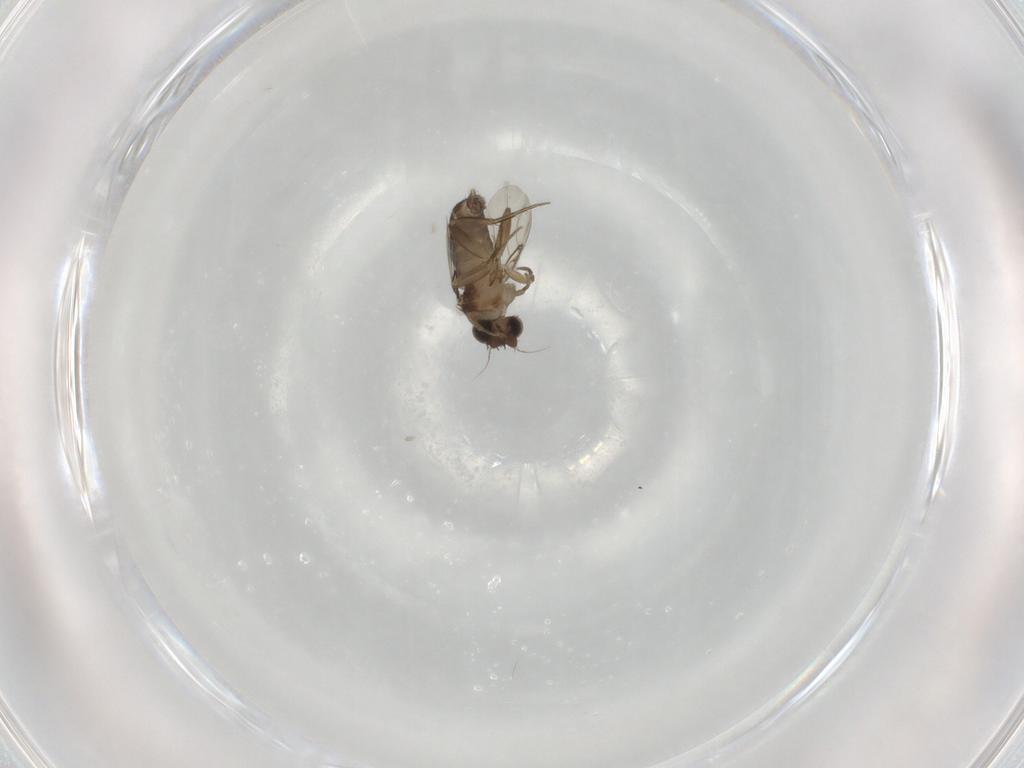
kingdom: Animalia
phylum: Arthropoda
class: Insecta
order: Diptera
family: Phoridae
